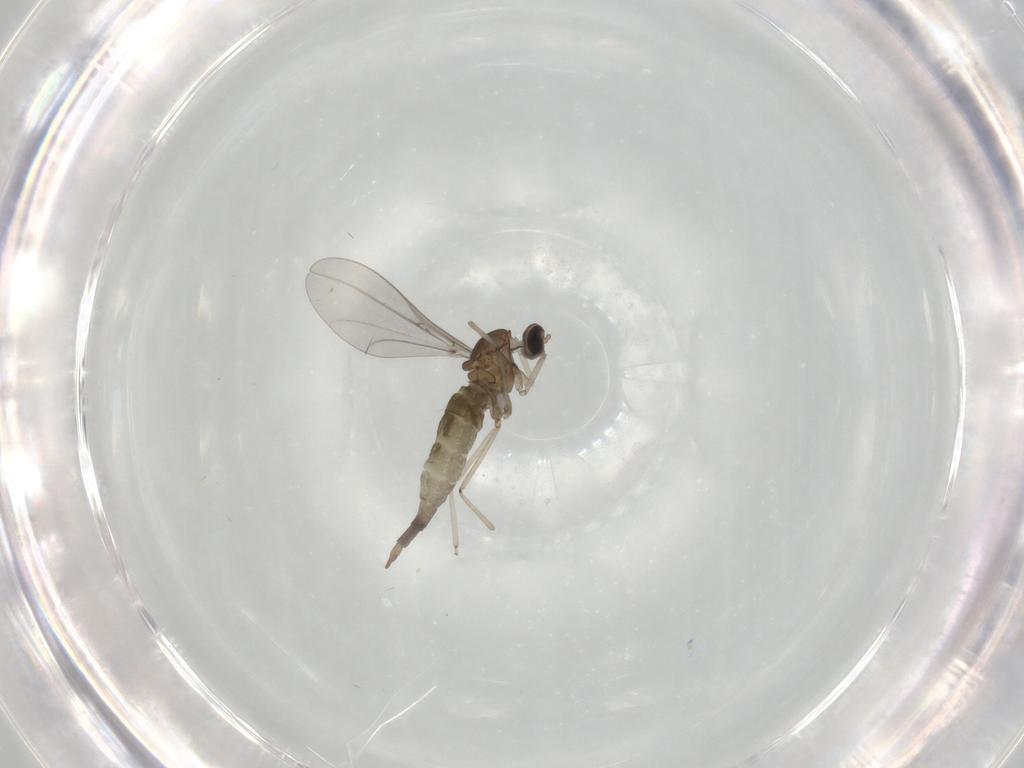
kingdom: Animalia
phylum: Arthropoda
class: Insecta
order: Diptera
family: Cecidomyiidae
